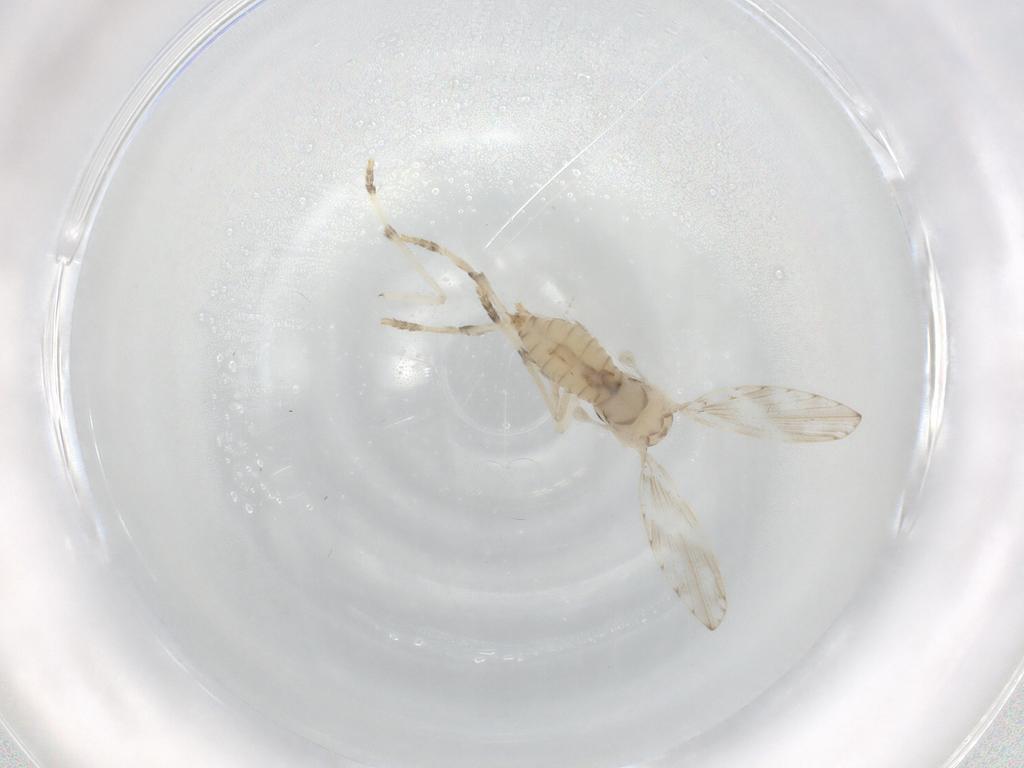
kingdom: Animalia
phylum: Arthropoda
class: Insecta
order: Diptera
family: Psychodidae
